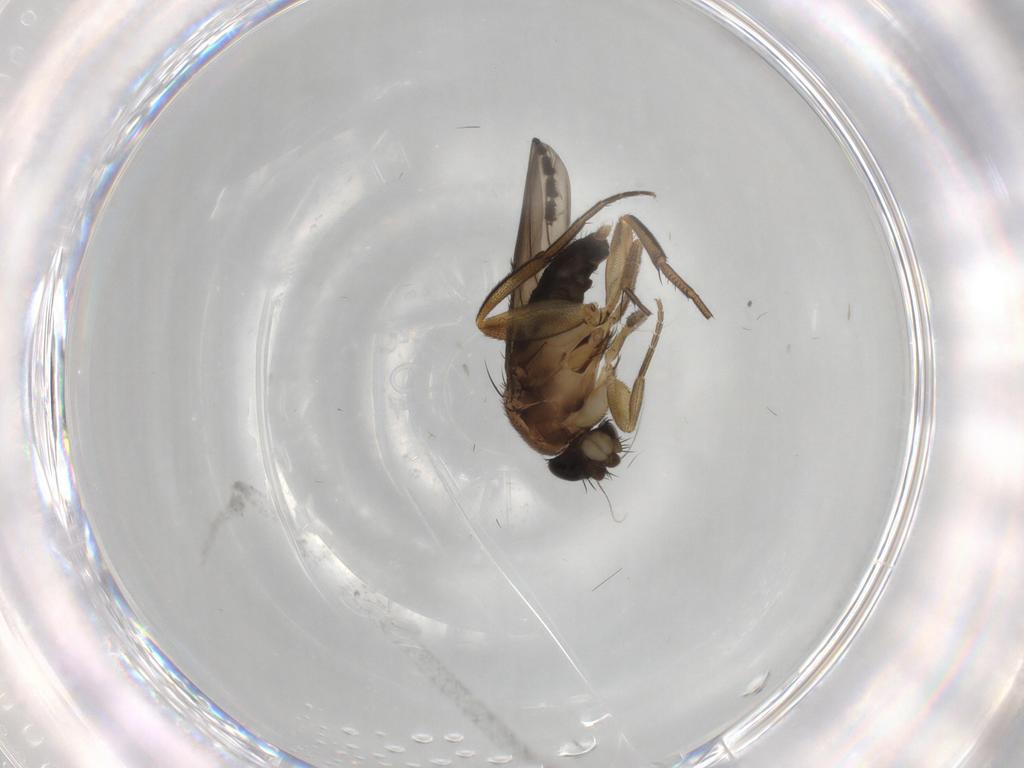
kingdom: Animalia
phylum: Arthropoda
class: Insecta
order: Diptera
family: Phoridae
